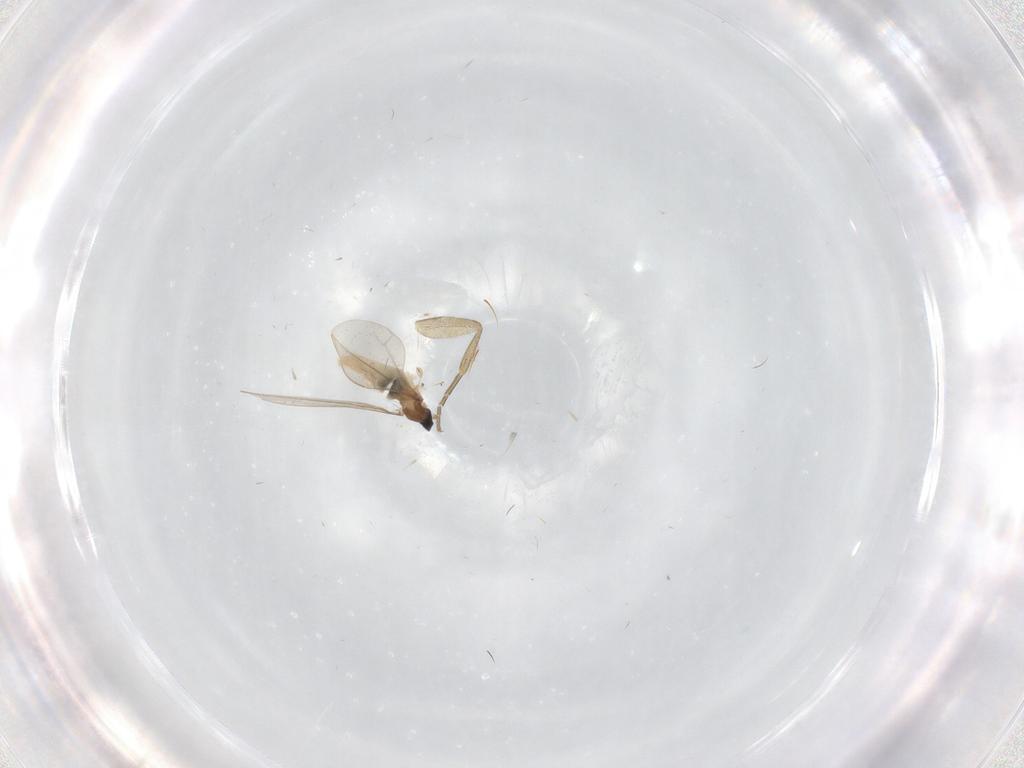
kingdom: Animalia
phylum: Arthropoda
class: Insecta
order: Diptera
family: Cecidomyiidae
